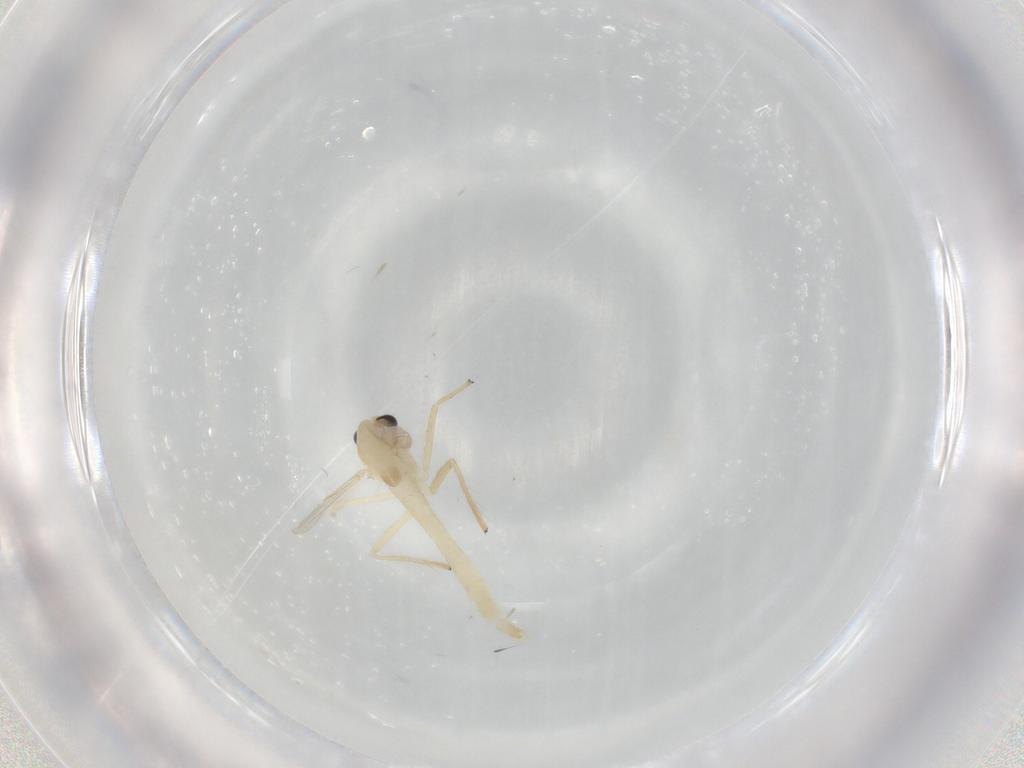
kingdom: Animalia
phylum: Arthropoda
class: Insecta
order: Diptera
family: Chironomidae
